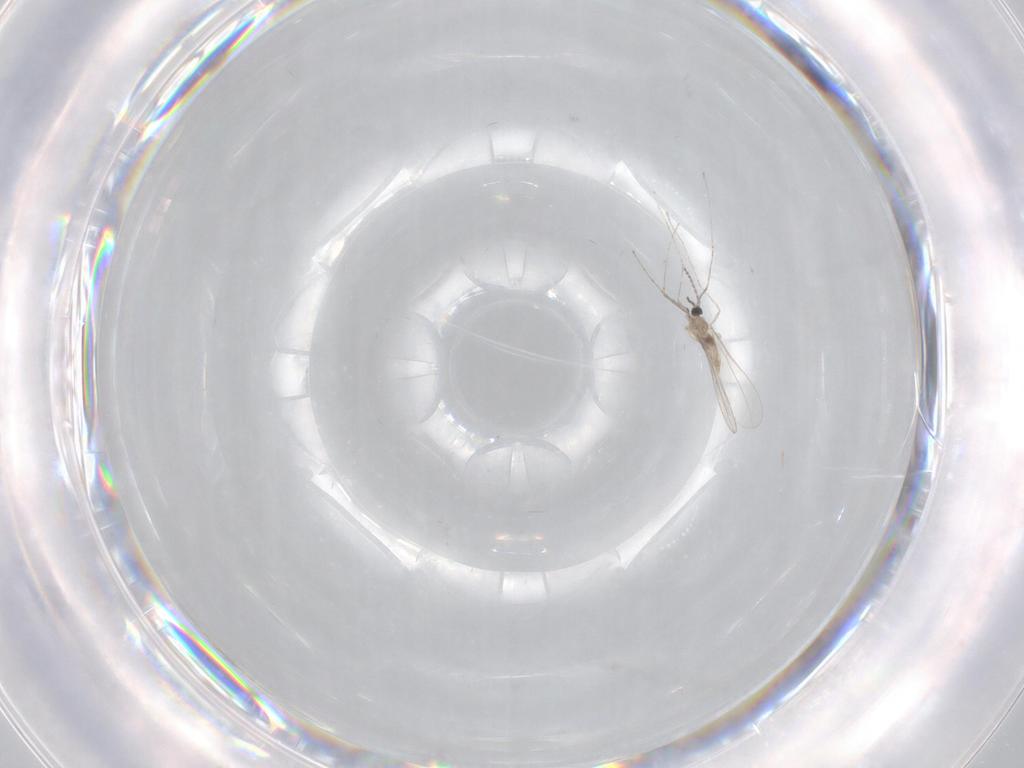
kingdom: Animalia
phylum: Arthropoda
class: Insecta
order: Diptera
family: Cecidomyiidae
